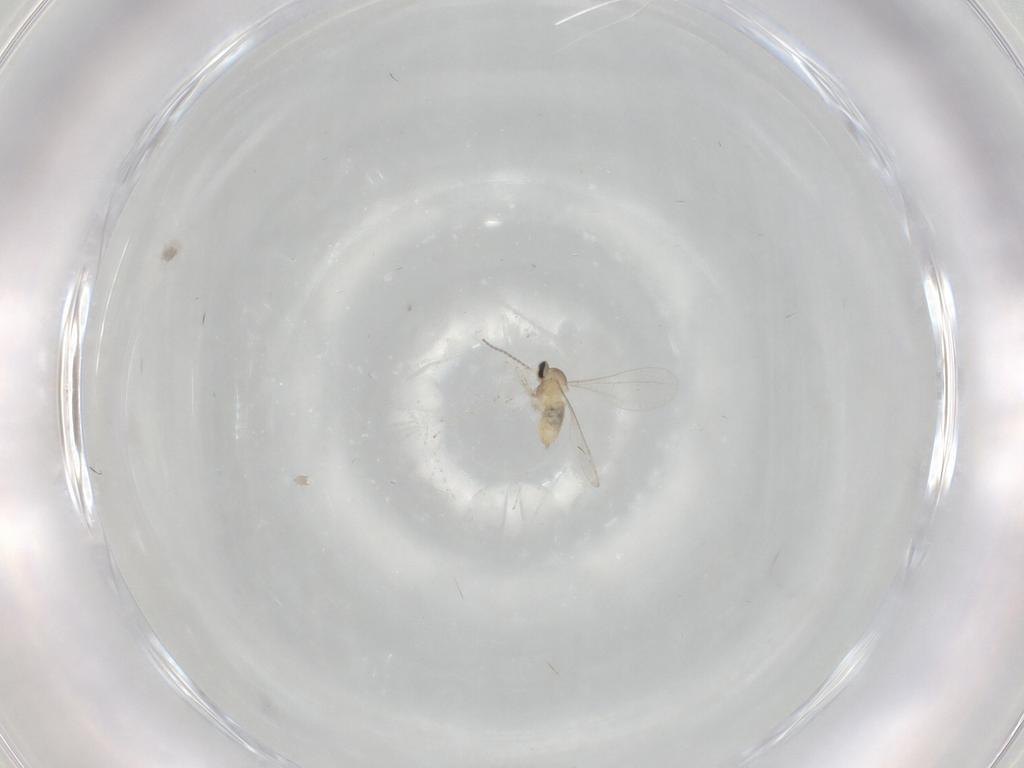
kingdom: Animalia
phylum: Arthropoda
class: Insecta
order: Diptera
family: Cecidomyiidae
